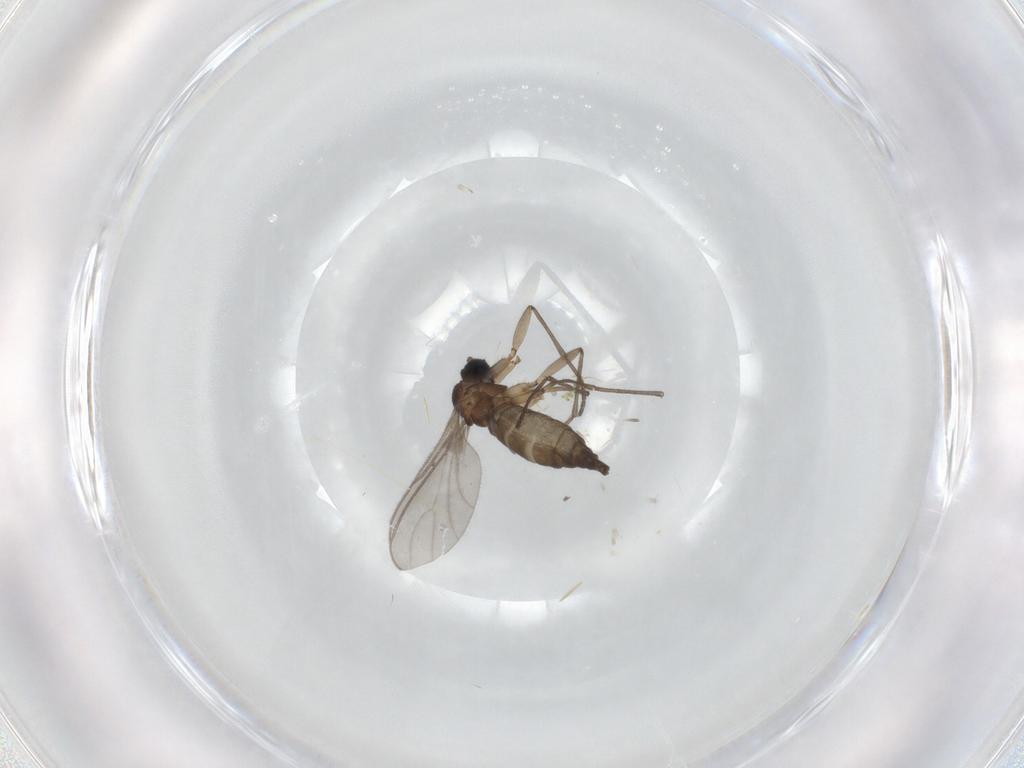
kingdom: Animalia
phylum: Arthropoda
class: Insecta
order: Diptera
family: Sciaridae
